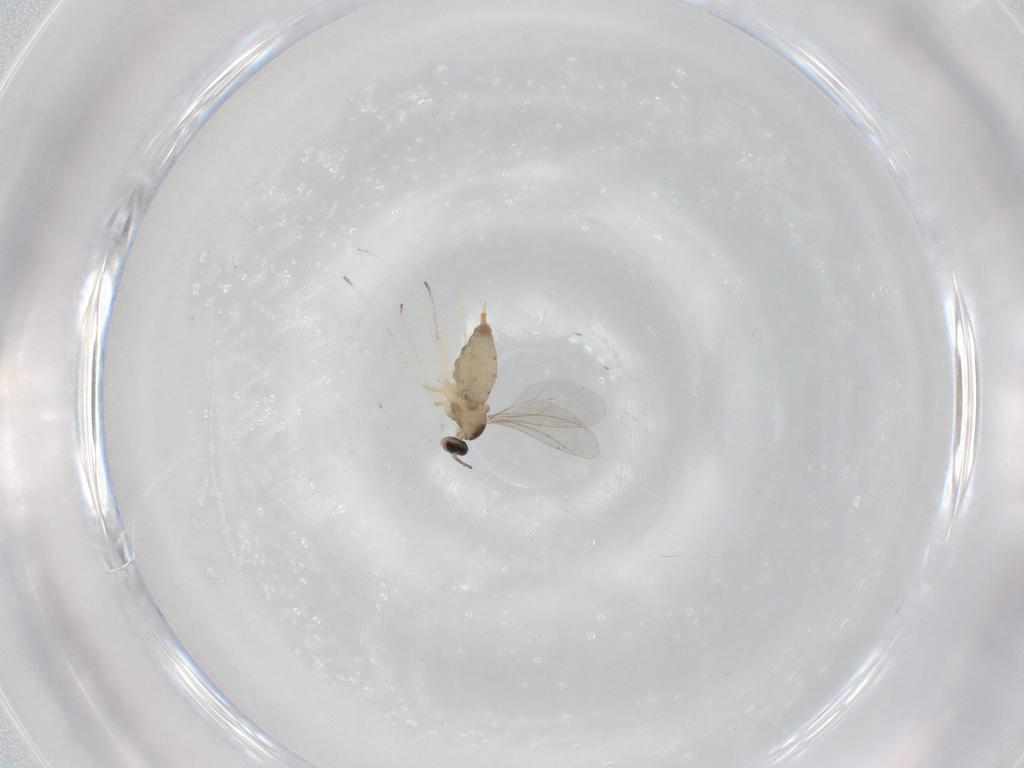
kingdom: Animalia
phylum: Arthropoda
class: Insecta
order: Diptera
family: Cecidomyiidae
